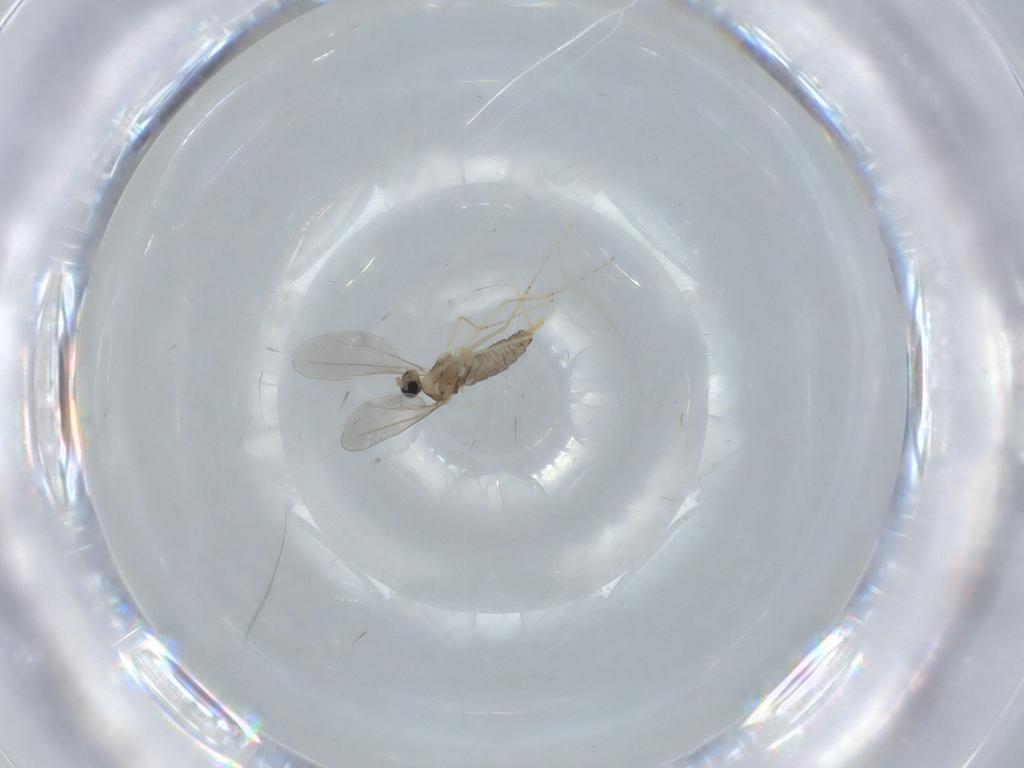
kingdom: Animalia
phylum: Arthropoda
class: Insecta
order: Diptera
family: Cecidomyiidae
